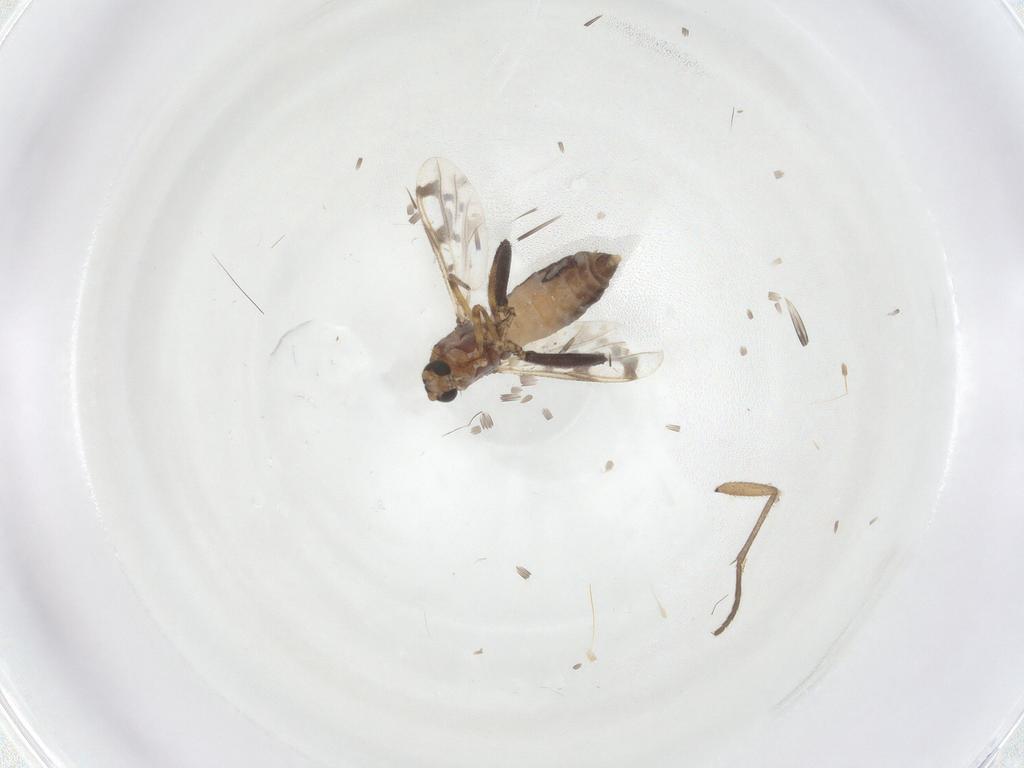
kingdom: Animalia
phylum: Arthropoda
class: Insecta
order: Diptera
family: Ceratopogonidae
